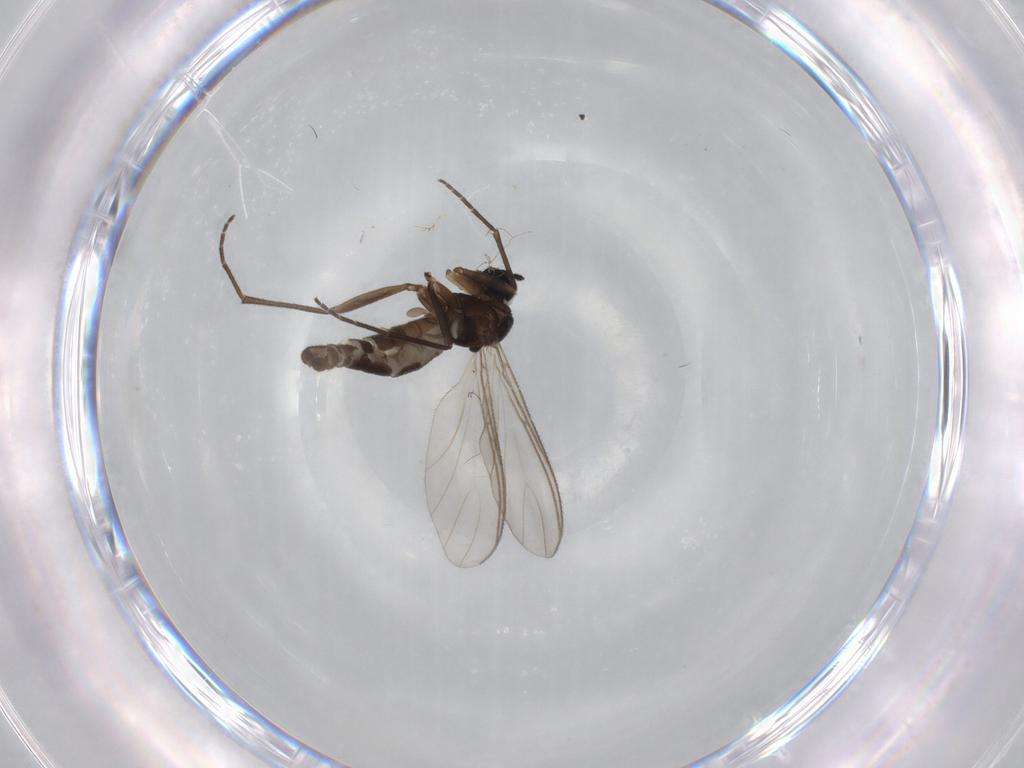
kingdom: Animalia
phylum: Arthropoda
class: Insecta
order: Diptera
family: Sciaridae
